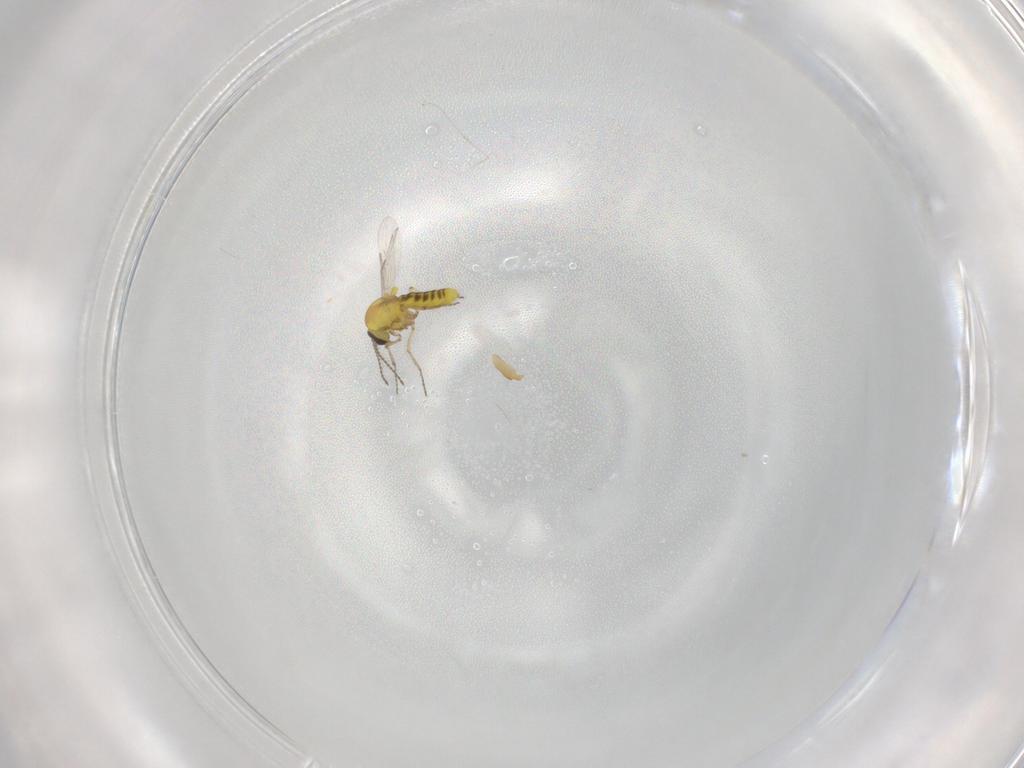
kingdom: Animalia
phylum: Arthropoda
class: Insecta
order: Diptera
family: Ceratopogonidae
